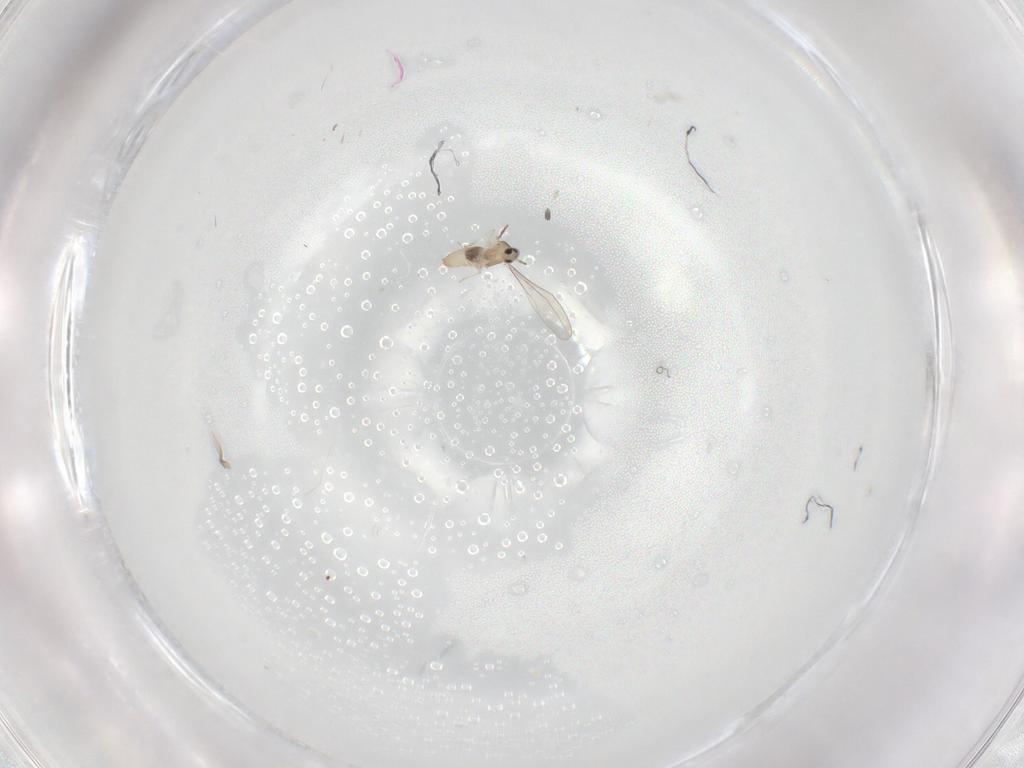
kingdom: Animalia
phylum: Arthropoda
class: Insecta
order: Diptera
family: Cecidomyiidae
